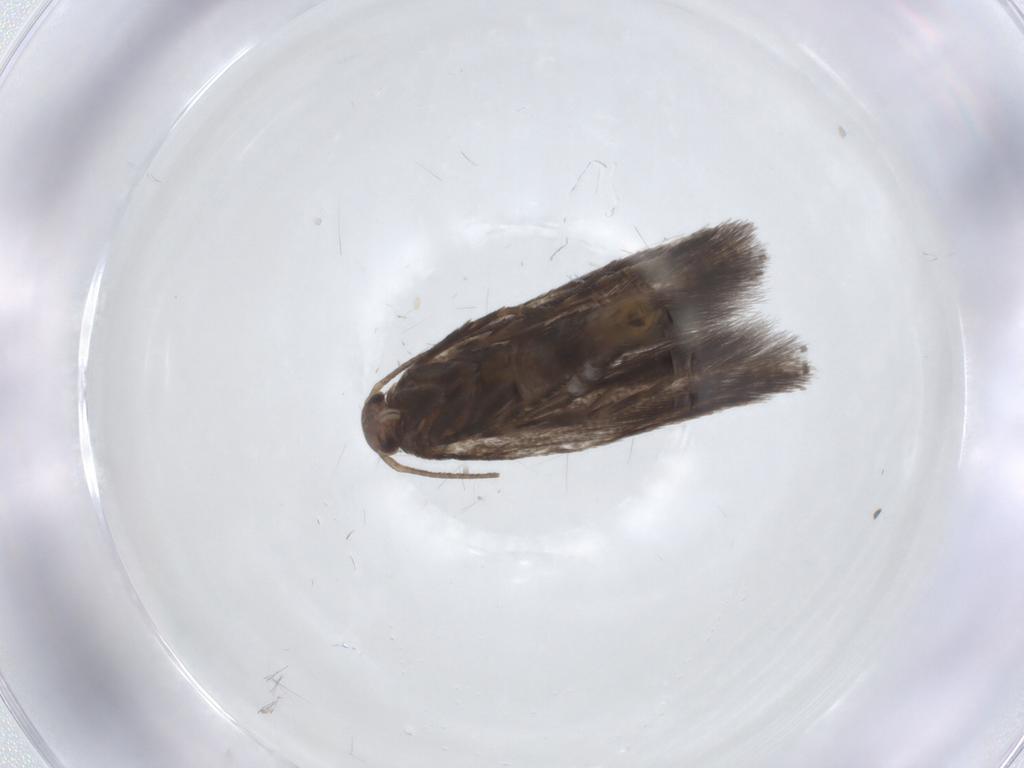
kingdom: Animalia
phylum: Arthropoda
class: Insecta
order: Lepidoptera
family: Elachistidae
